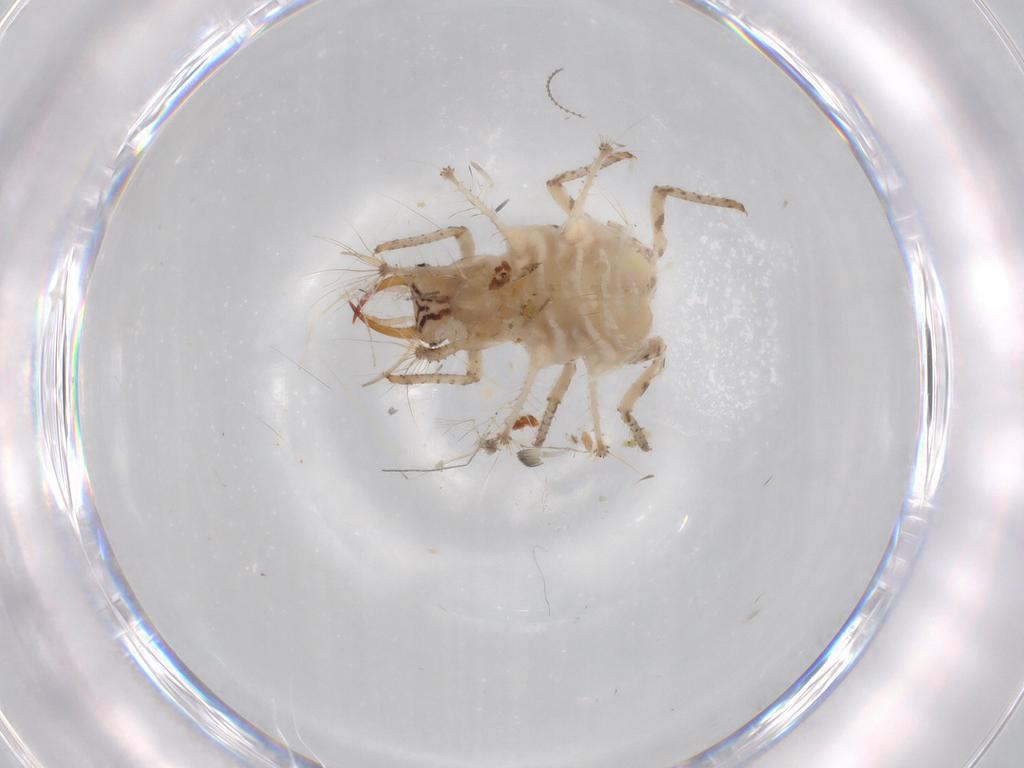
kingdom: Animalia
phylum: Arthropoda
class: Insecta
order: Neuroptera
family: Chrysopidae
